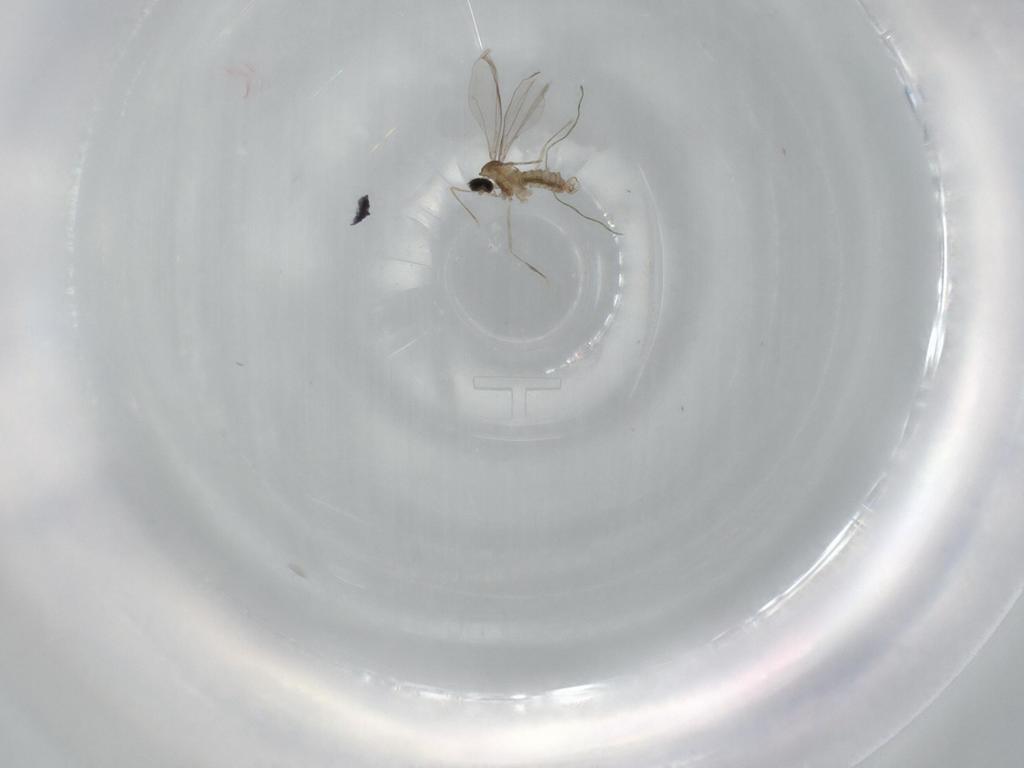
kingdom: Animalia
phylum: Arthropoda
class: Insecta
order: Diptera
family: Cecidomyiidae
